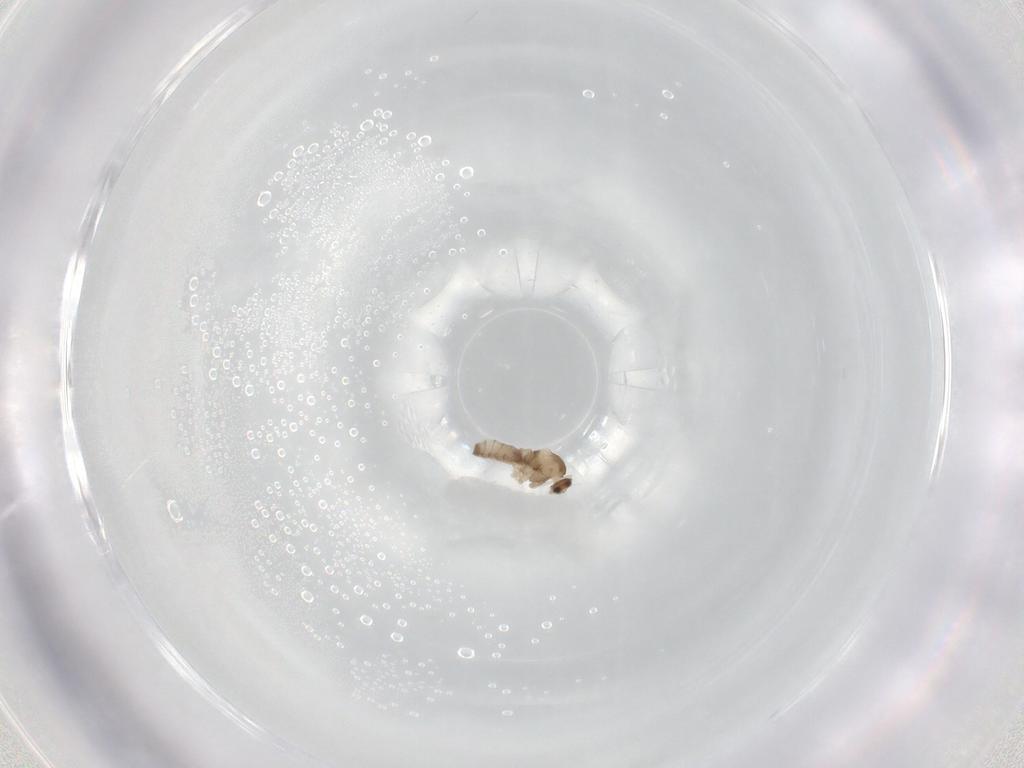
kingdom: Animalia
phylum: Arthropoda
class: Insecta
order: Diptera
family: Cecidomyiidae
